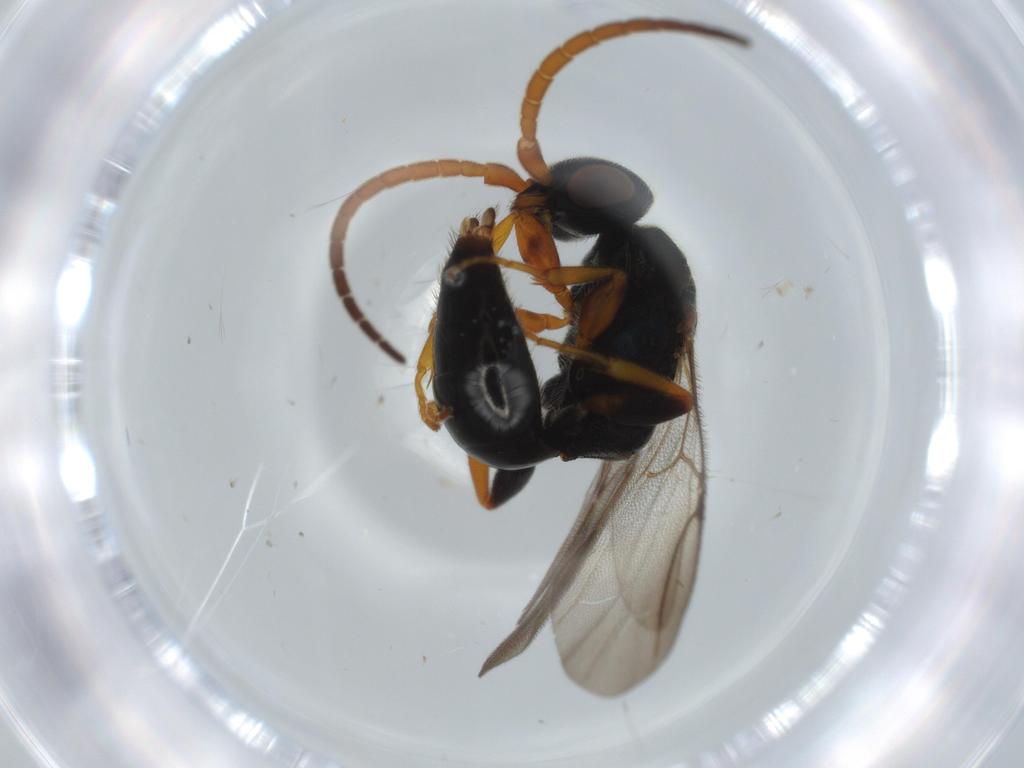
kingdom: Animalia
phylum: Arthropoda
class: Insecta
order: Hymenoptera
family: Bethylidae
